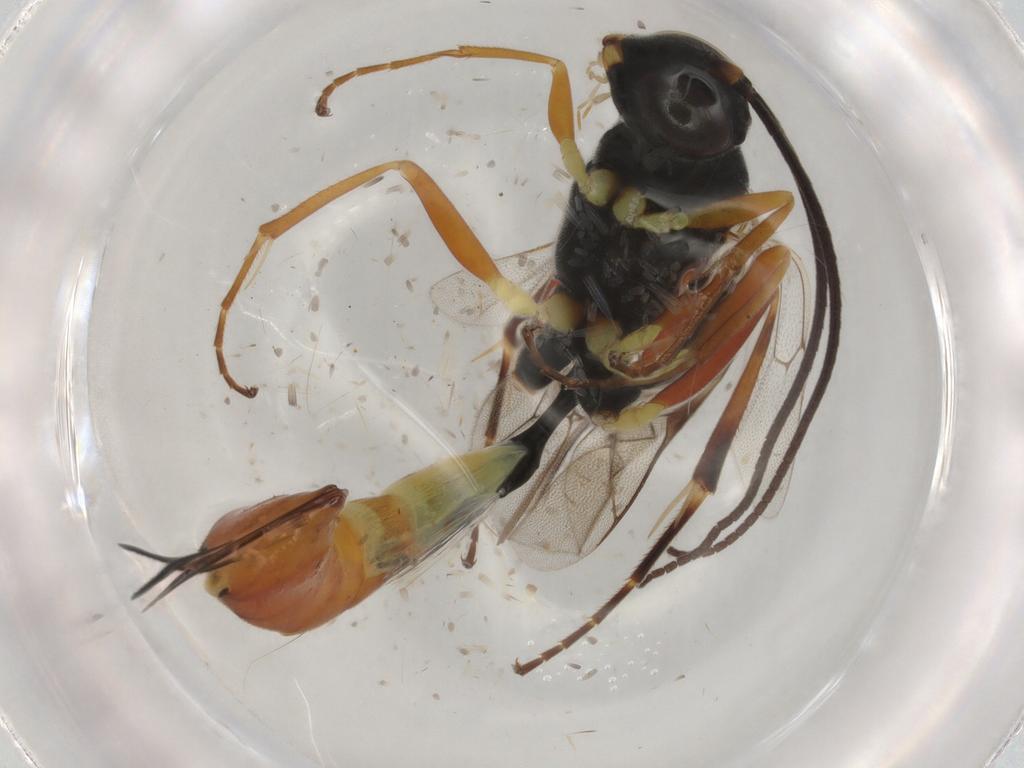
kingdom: Animalia
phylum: Arthropoda
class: Insecta
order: Hymenoptera
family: Ichneumonidae
